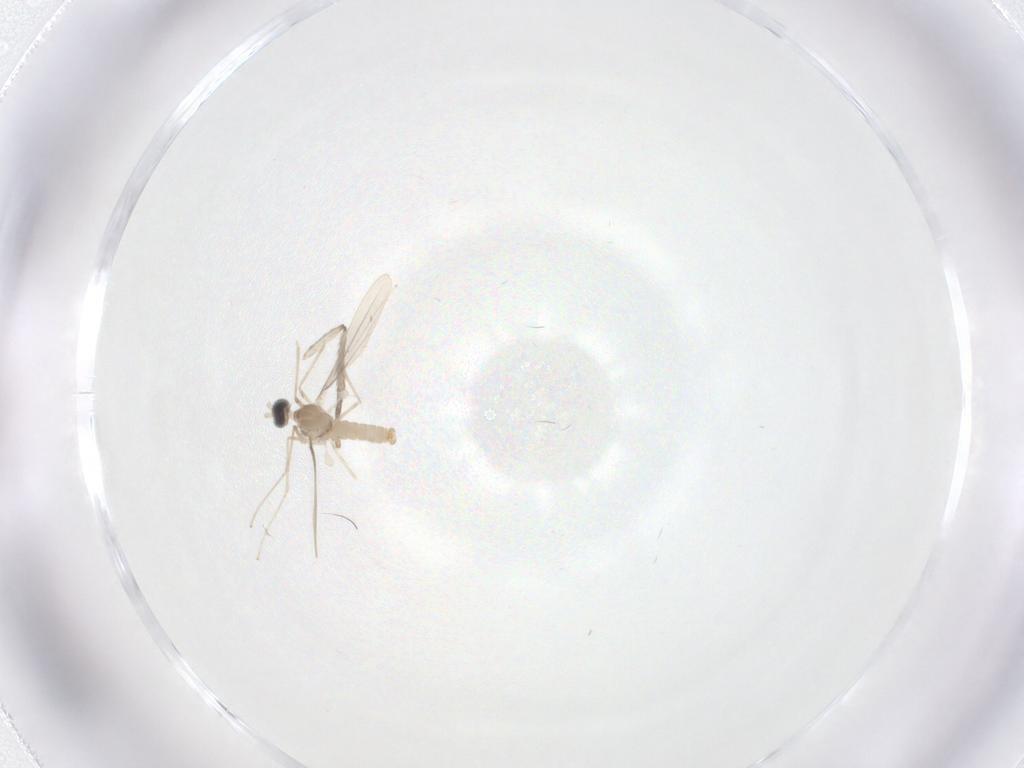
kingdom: Animalia
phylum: Arthropoda
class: Insecta
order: Diptera
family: Cecidomyiidae
